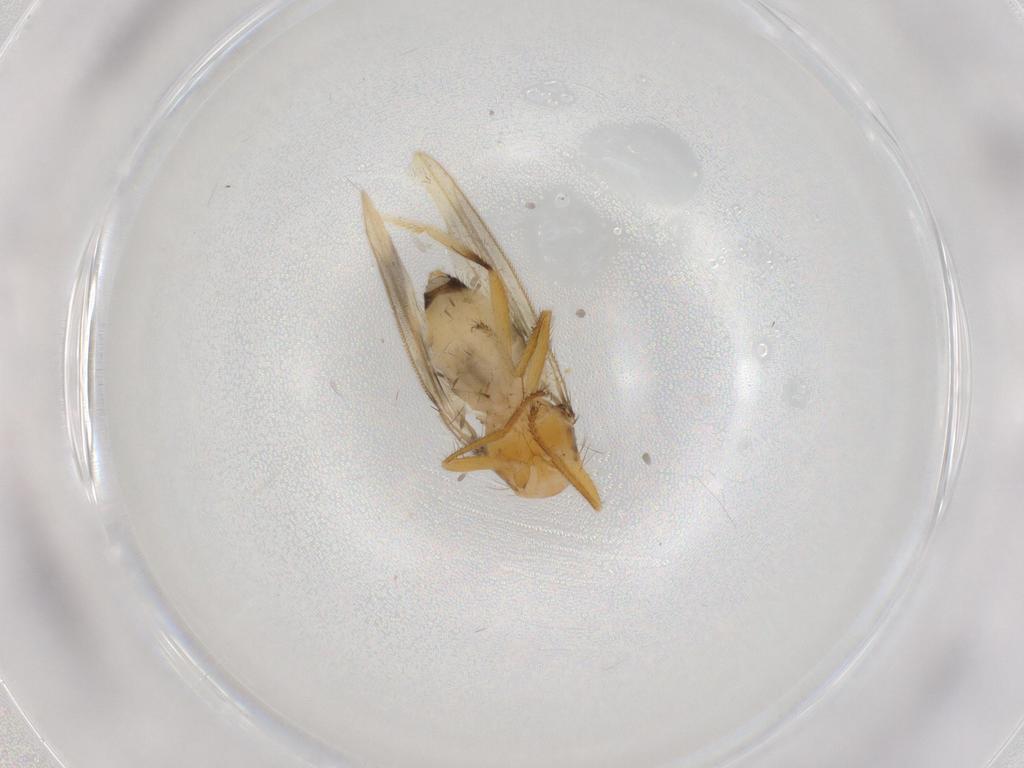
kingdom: Animalia
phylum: Arthropoda
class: Insecta
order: Diptera
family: Periscelididae
